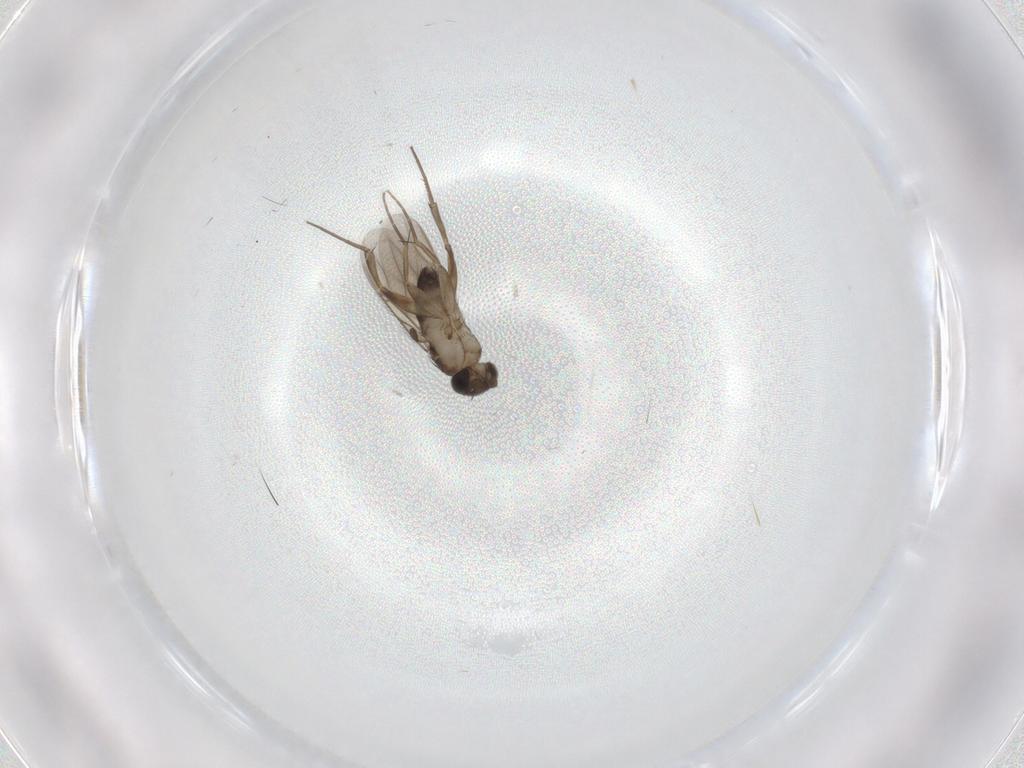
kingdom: Animalia
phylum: Arthropoda
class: Insecta
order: Diptera
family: Phoridae
